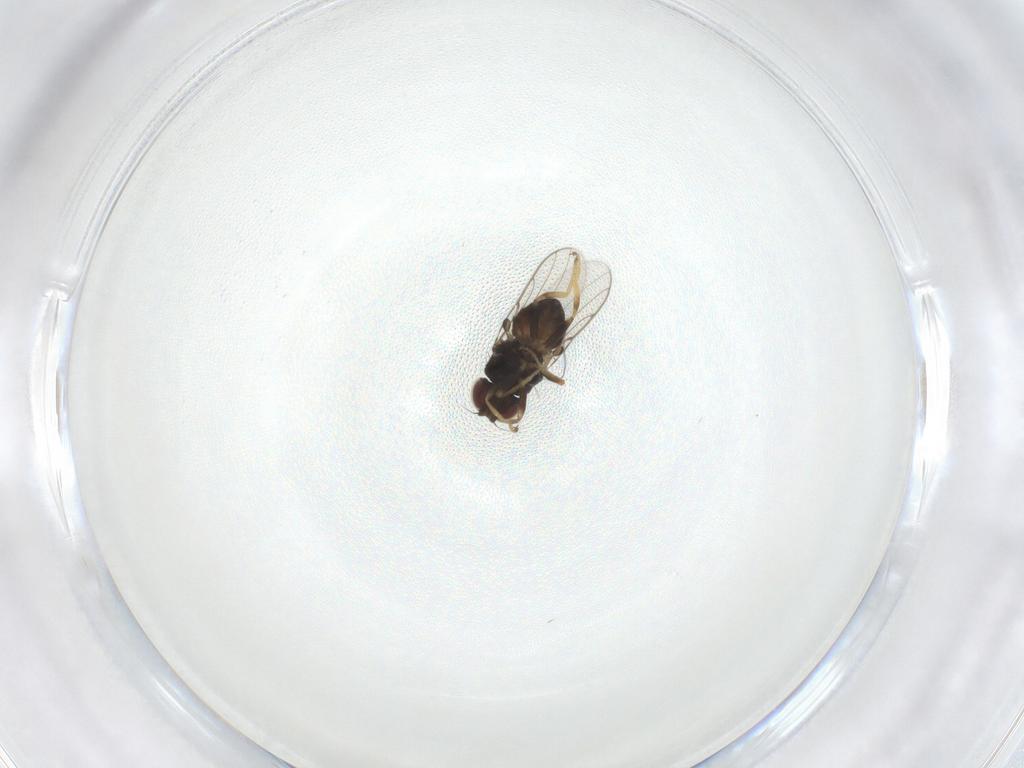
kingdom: Animalia
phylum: Arthropoda
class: Insecta
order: Diptera
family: Chloropidae
